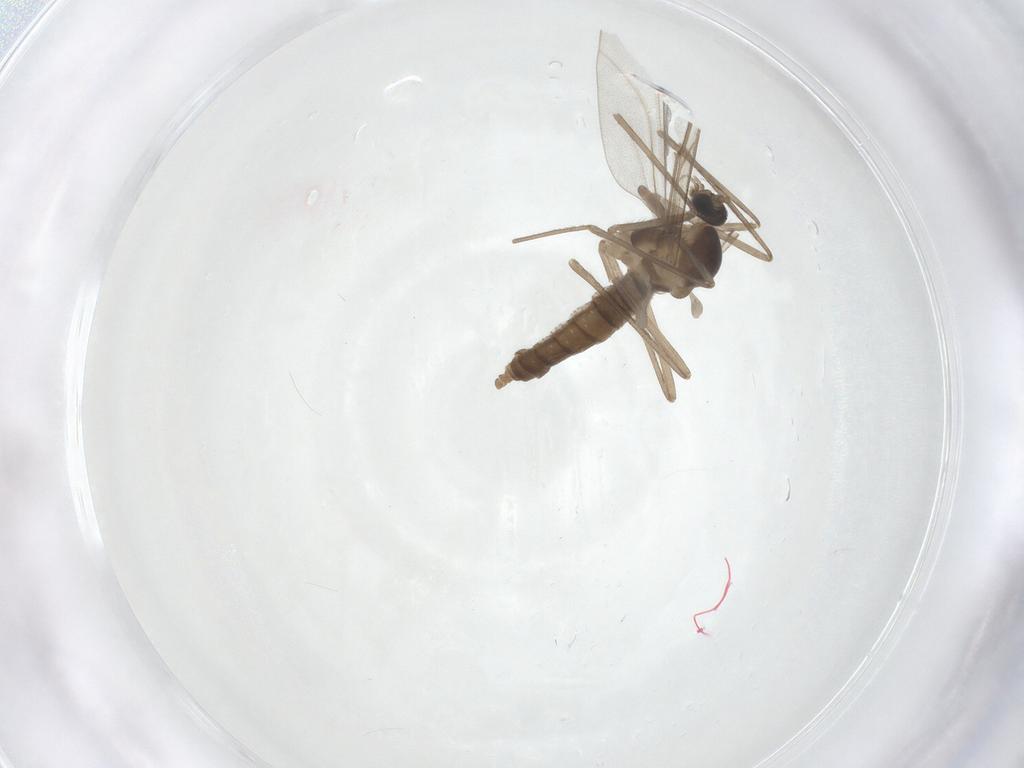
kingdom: Animalia
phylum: Arthropoda
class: Insecta
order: Diptera
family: Cecidomyiidae
